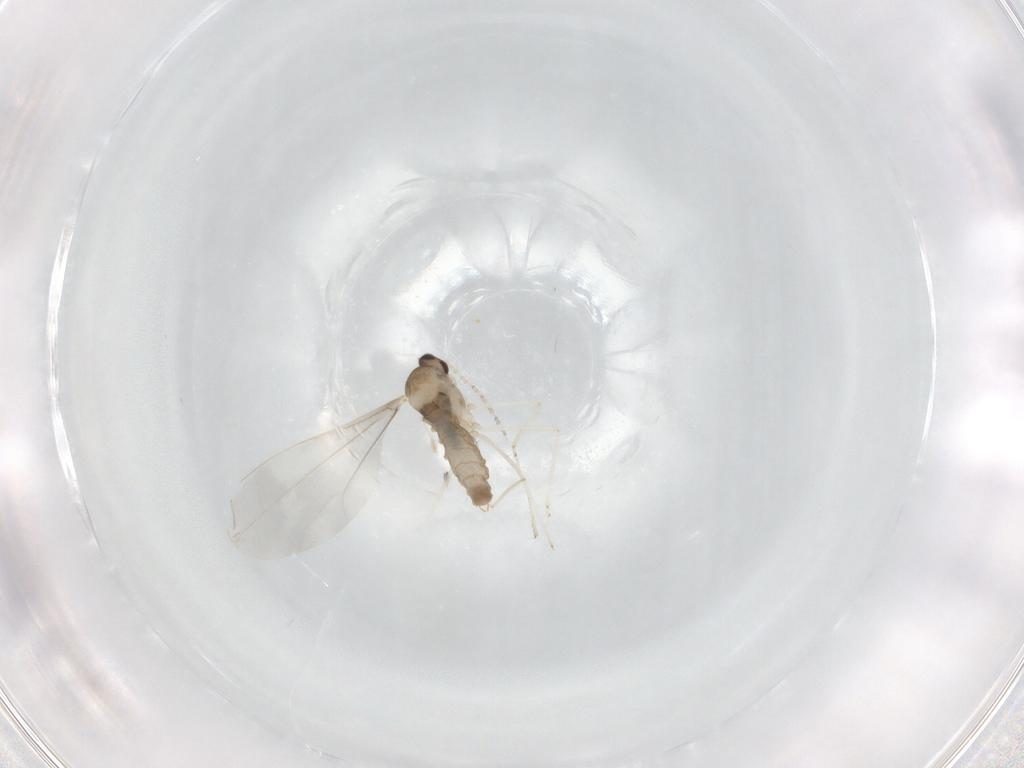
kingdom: Animalia
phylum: Arthropoda
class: Insecta
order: Diptera
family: Cecidomyiidae
